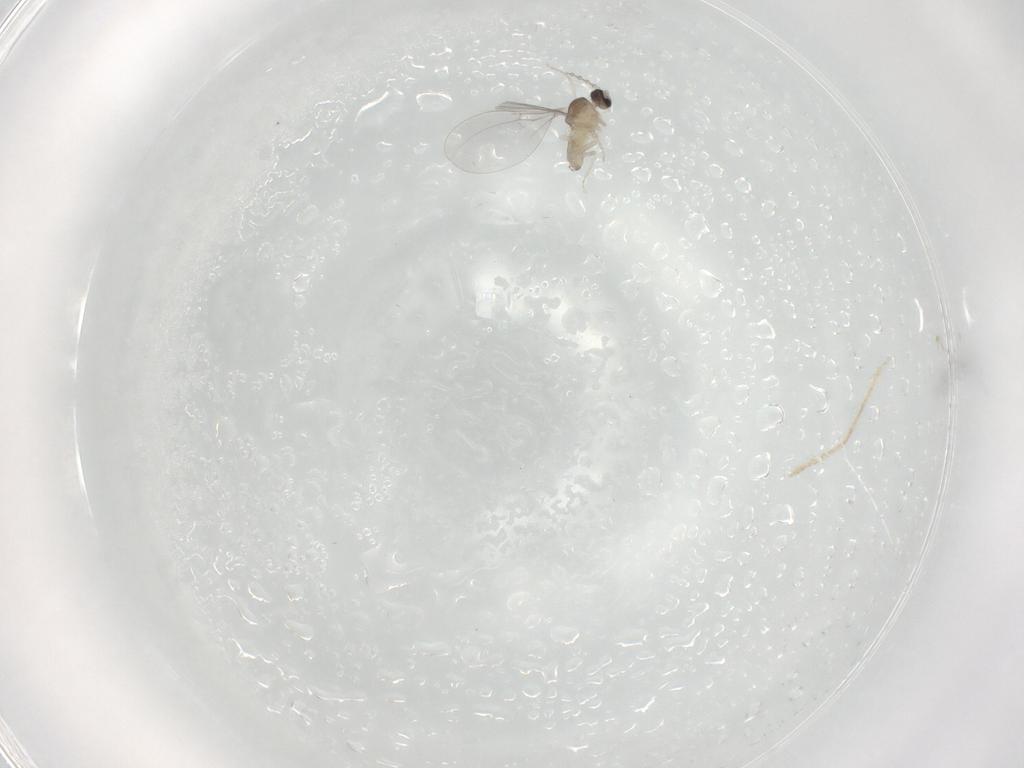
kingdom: Animalia
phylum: Arthropoda
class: Insecta
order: Diptera
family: Cecidomyiidae
